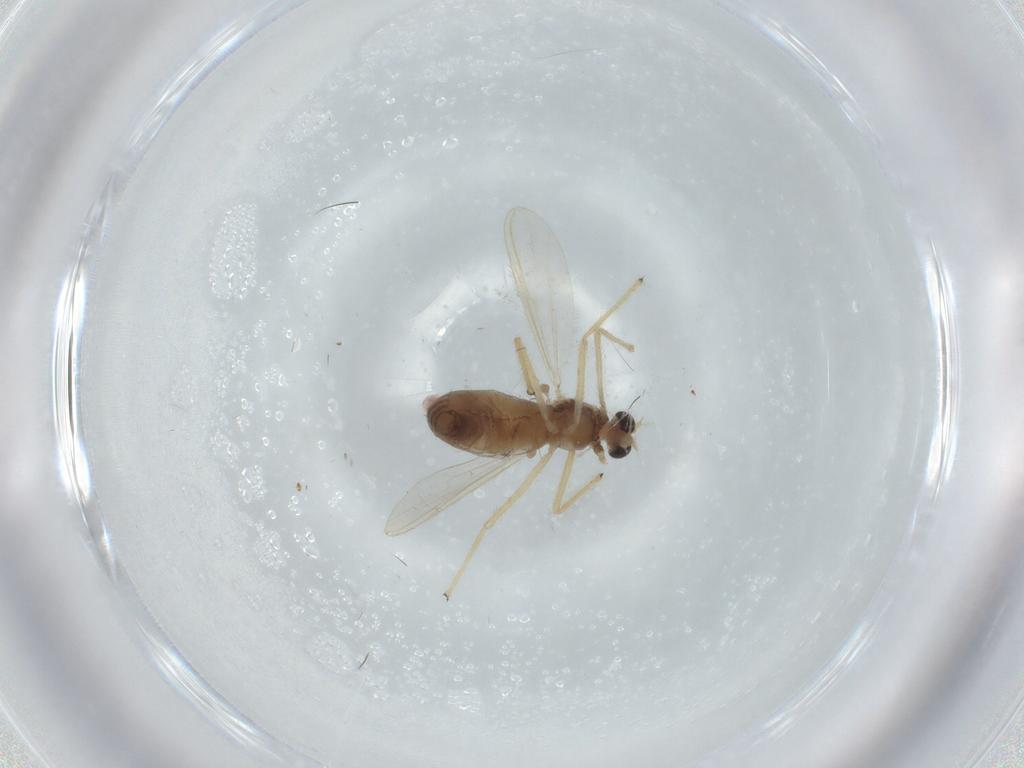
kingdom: Animalia
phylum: Arthropoda
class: Insecta
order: Diptera
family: Chironomidae
